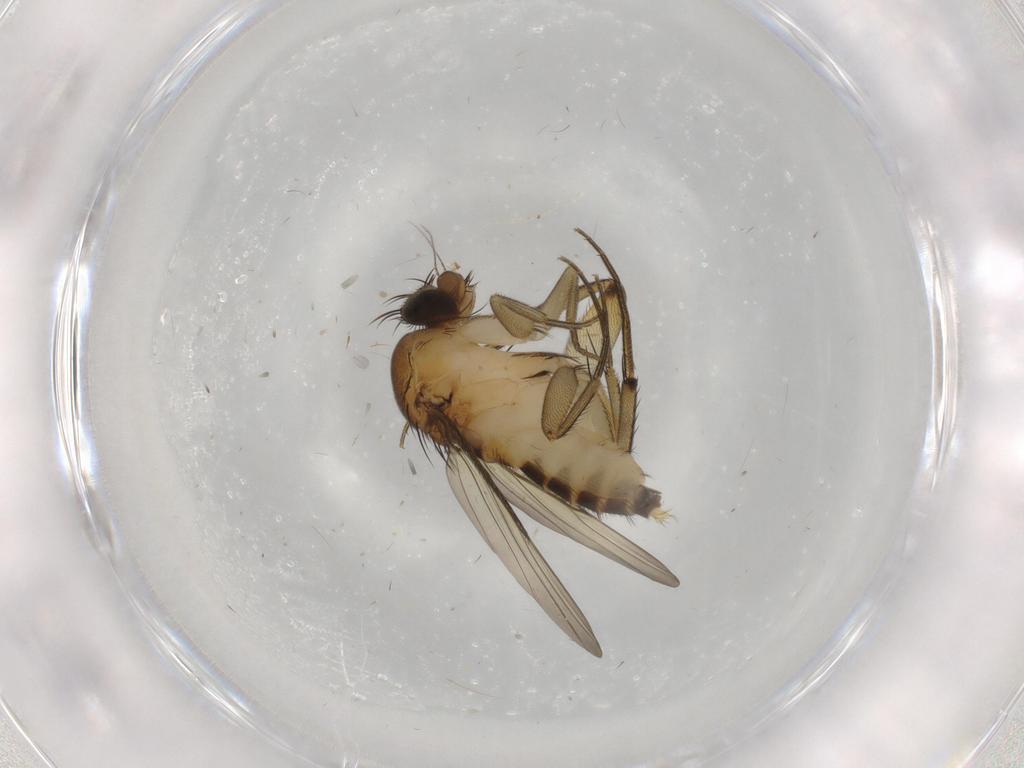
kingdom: Animalia
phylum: Arthropoda
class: Insecta
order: Diptera
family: Phoridae
